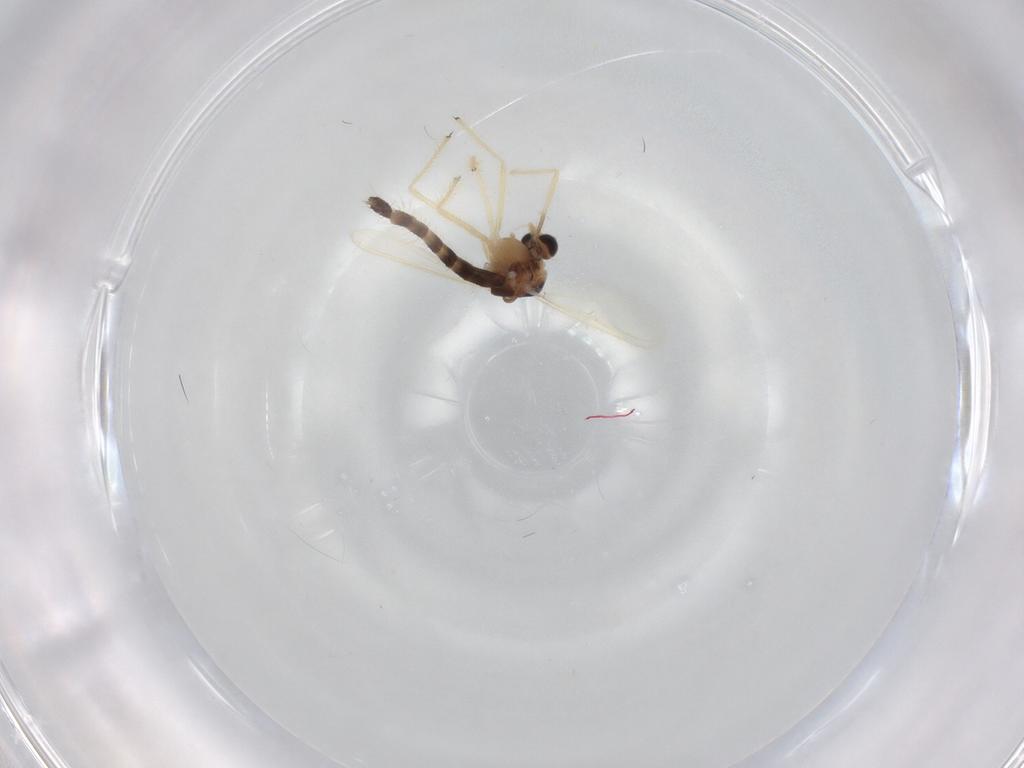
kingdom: Animalia
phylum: Arthropoda
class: Insecta
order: Diptera
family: Chironomidae
